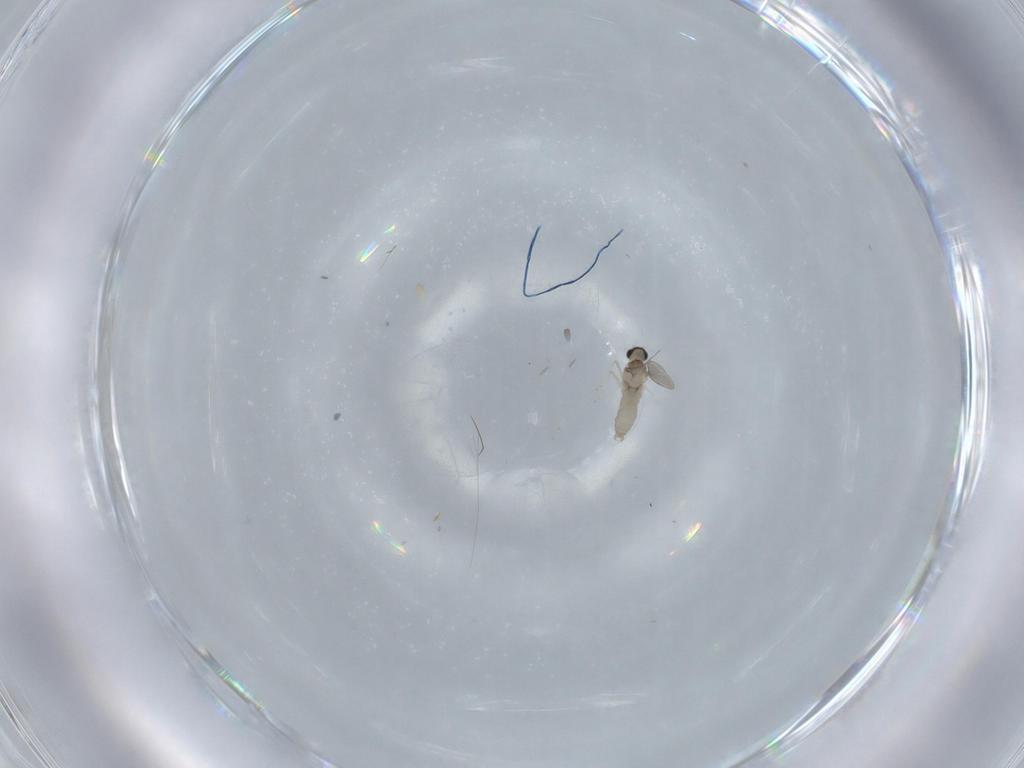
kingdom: Animalia
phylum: Arthropoda
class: Insecta
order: Diptera
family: Cecidomyiidae
